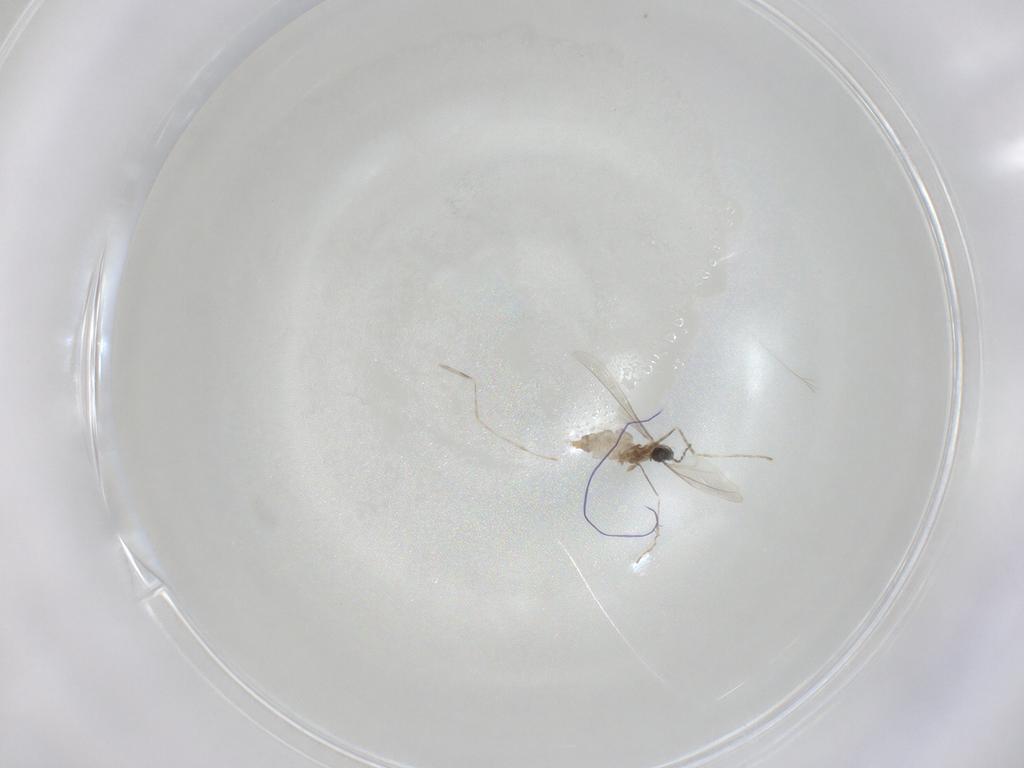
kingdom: Animalia
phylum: Arthropoda
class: Insecta
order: Diptera
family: Cecidomyiidae
